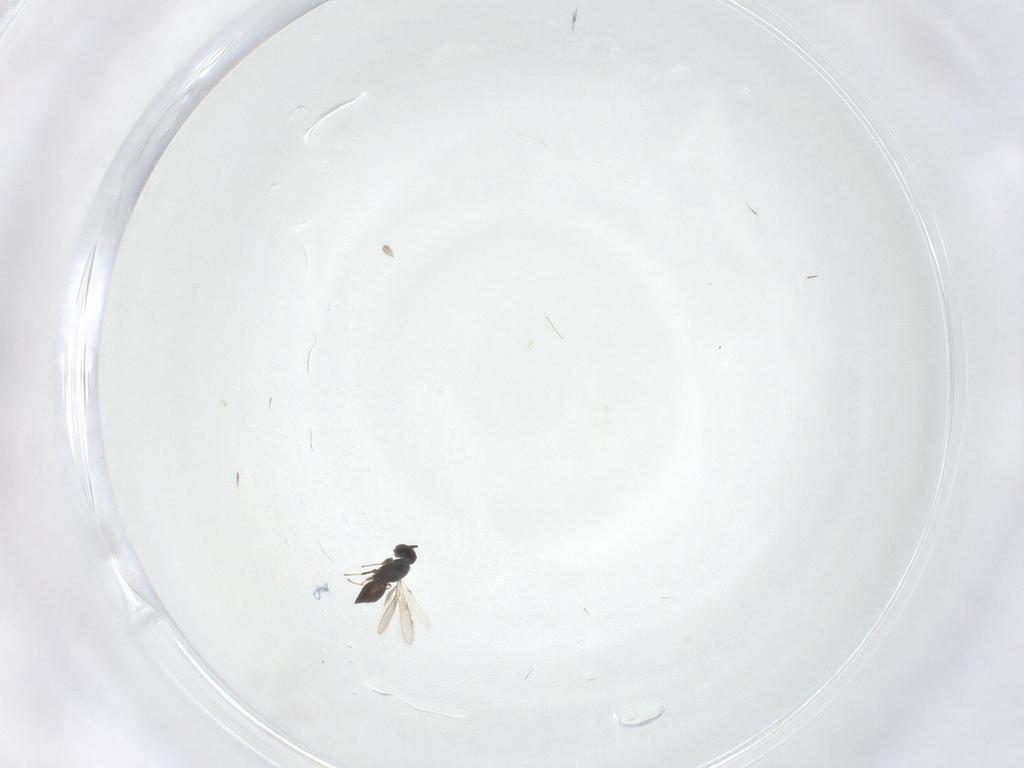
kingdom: Animalia
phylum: Arthropoda
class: Insecta
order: Hymenoptera
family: Scelionidae
